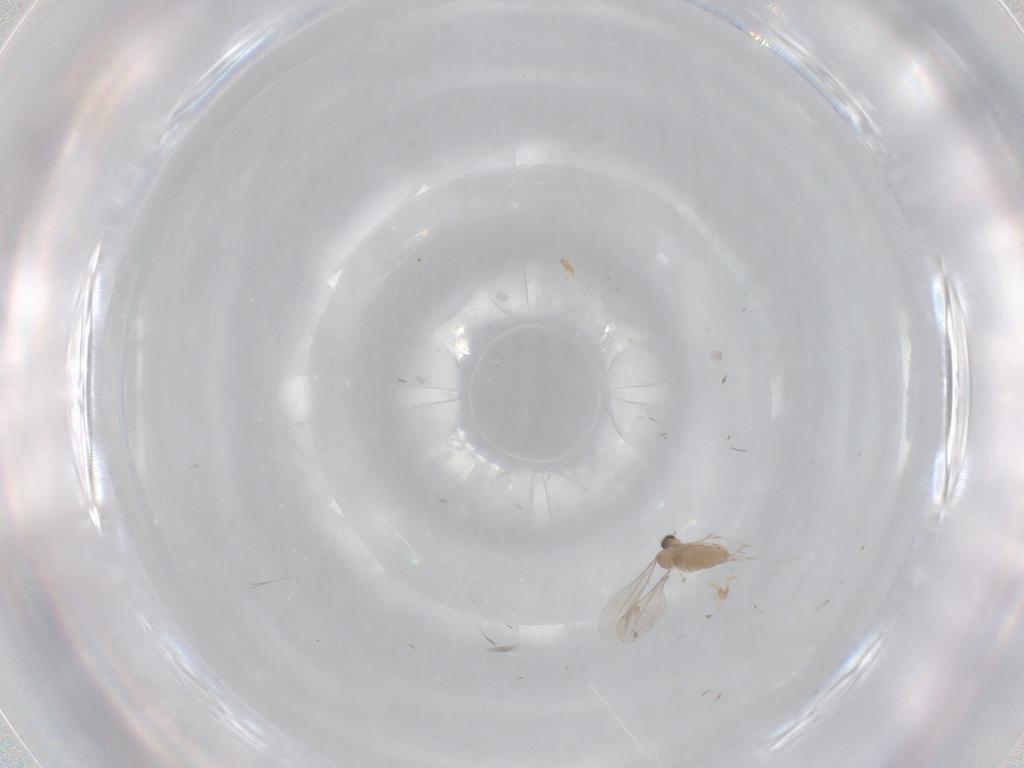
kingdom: Animalia
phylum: Arthropoda
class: Insecta
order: Diptera
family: Cecidomyiidae
